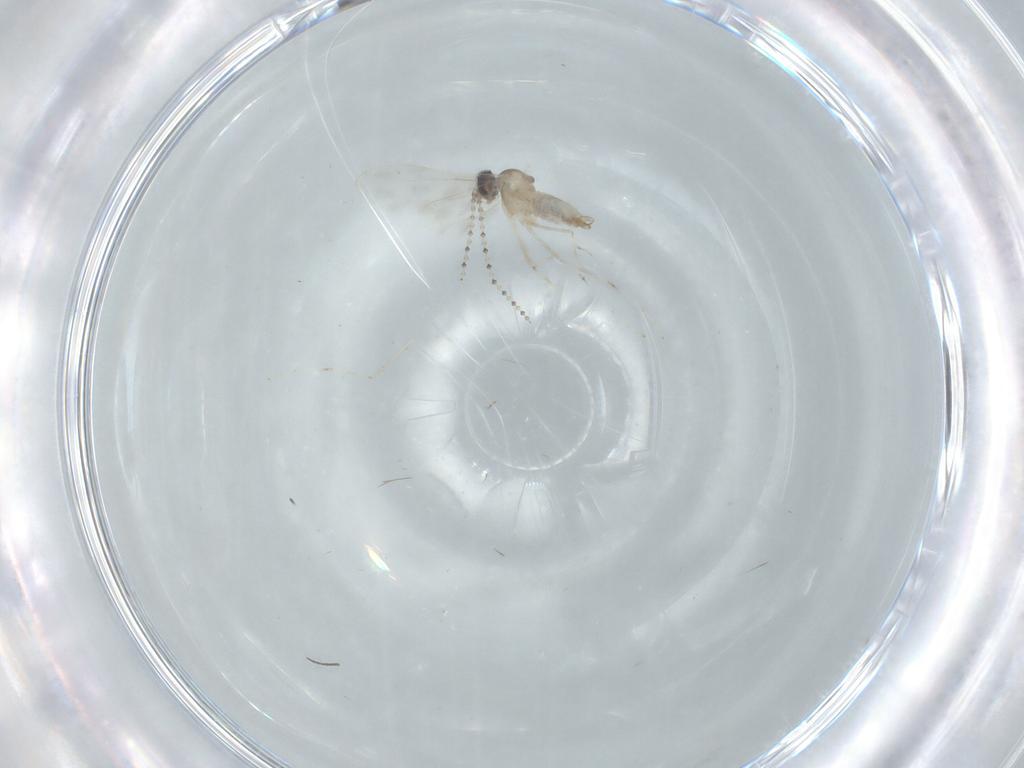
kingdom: Animalia
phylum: Arthropoda
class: Insecta
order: Diptera
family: Cecidomyiidae
